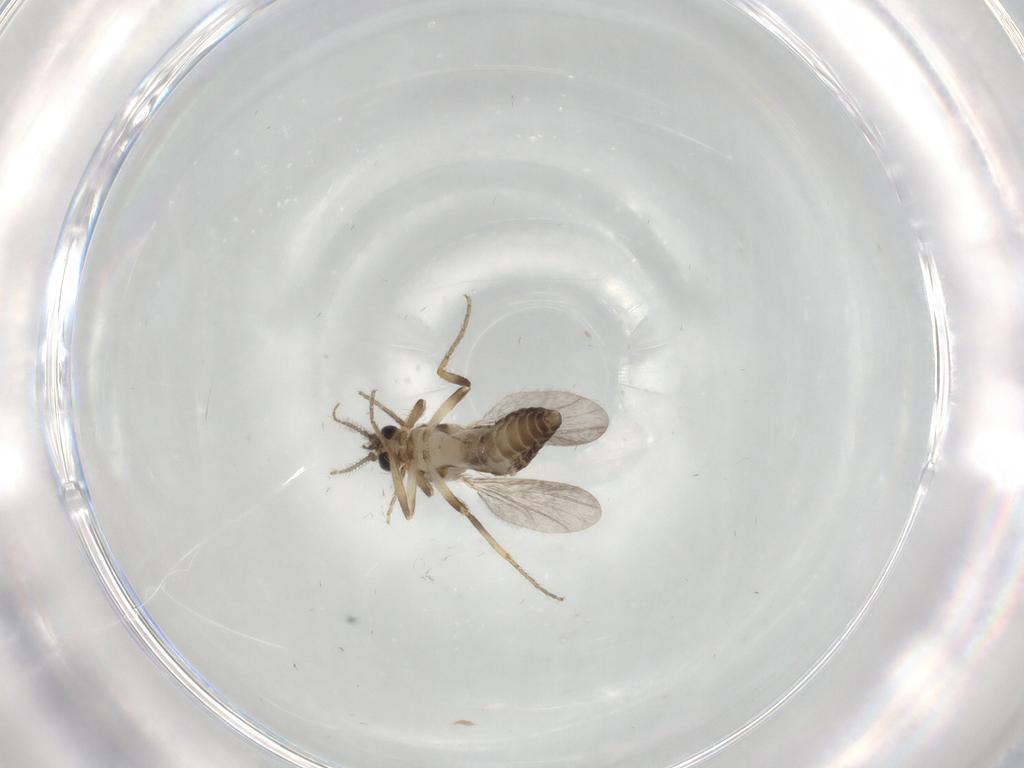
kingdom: Animalia
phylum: Arthropoda
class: Insecta
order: Diptera
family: Ceratopogonidae
